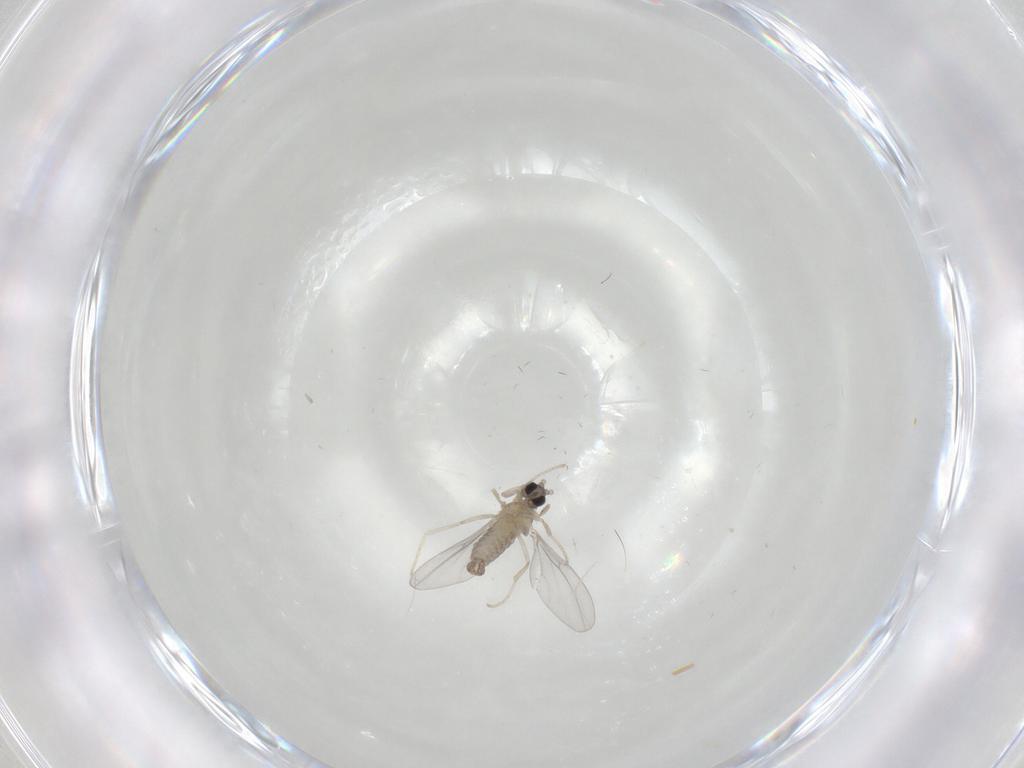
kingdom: Animalia
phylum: Arthropoda
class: Insecta
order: Diptera
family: Cecidomyiidae
